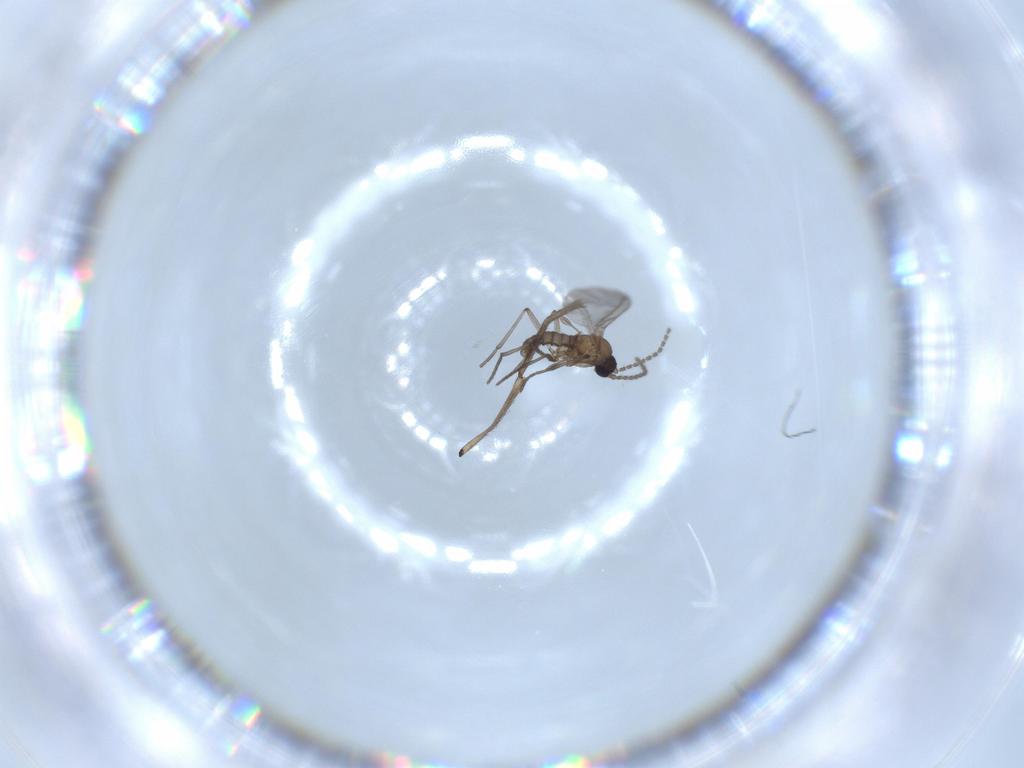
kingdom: Animalia
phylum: Arthropoda
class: Insecta
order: Diptera
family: Sciaridae
